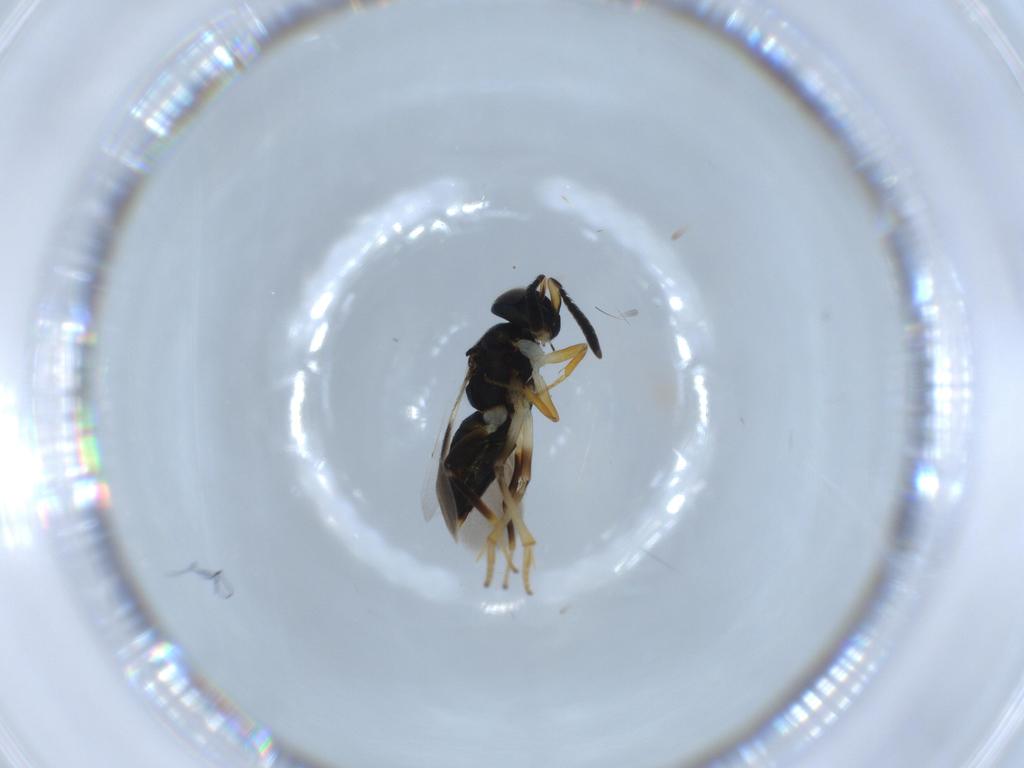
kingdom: Animalia
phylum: Arthropoda
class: Insecta
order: Hymenoptera
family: Encyrtidae
